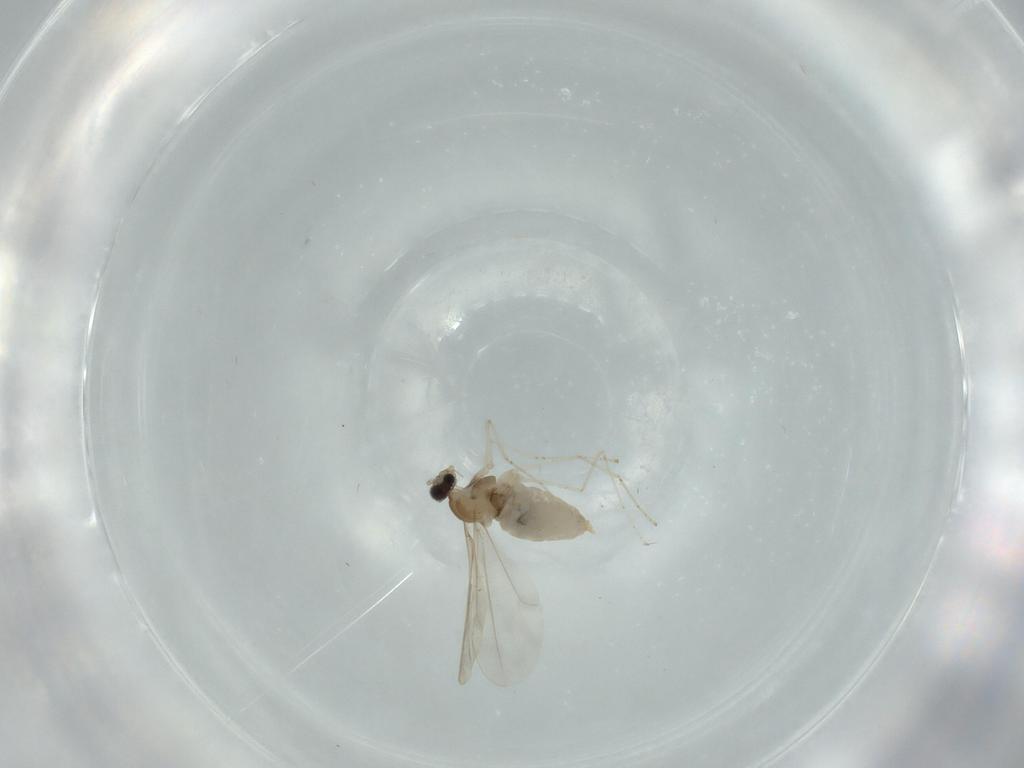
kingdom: Animalia
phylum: Arthropoda
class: Insecta
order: Diptera
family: Cecidomyiidae
